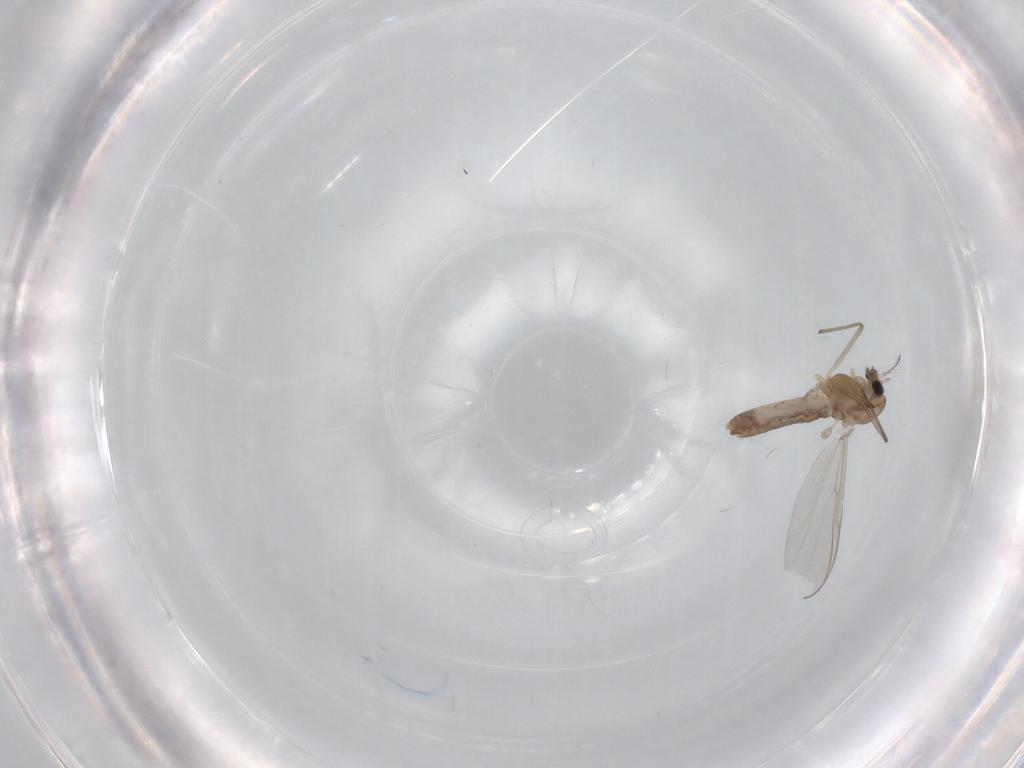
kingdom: Animalia
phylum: Arthropoda
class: Insecta
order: Diptera
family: Chironomidae
